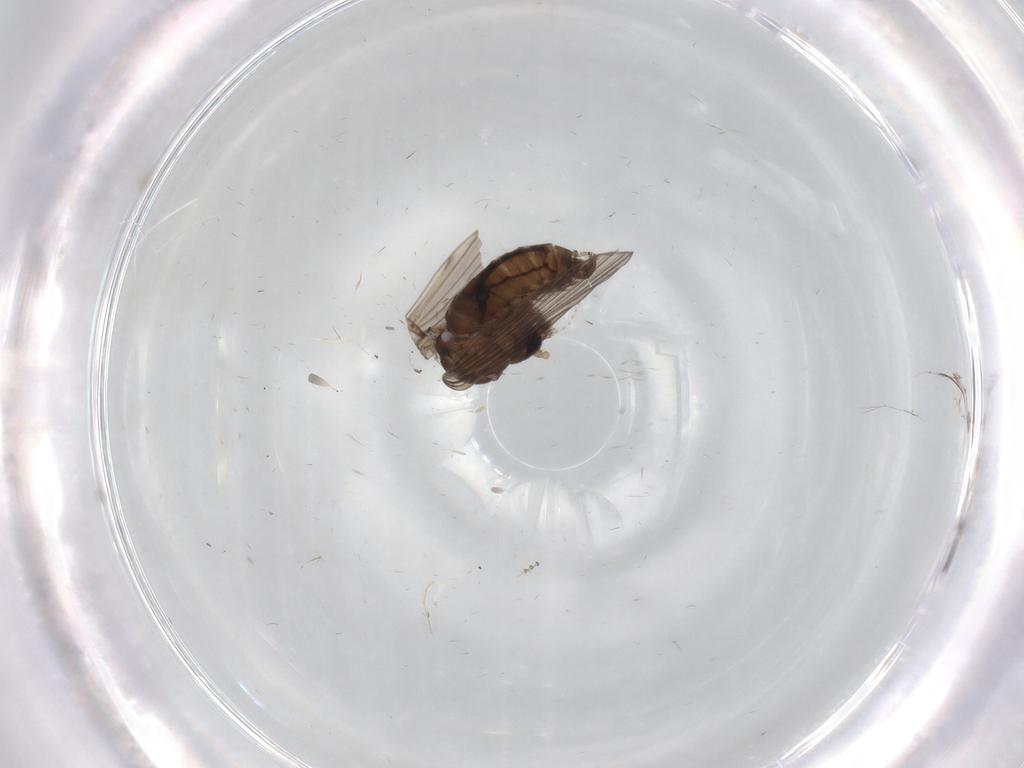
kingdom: Animalia
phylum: Arthropoda
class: Insecta
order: Diptera
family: Psychodidae
